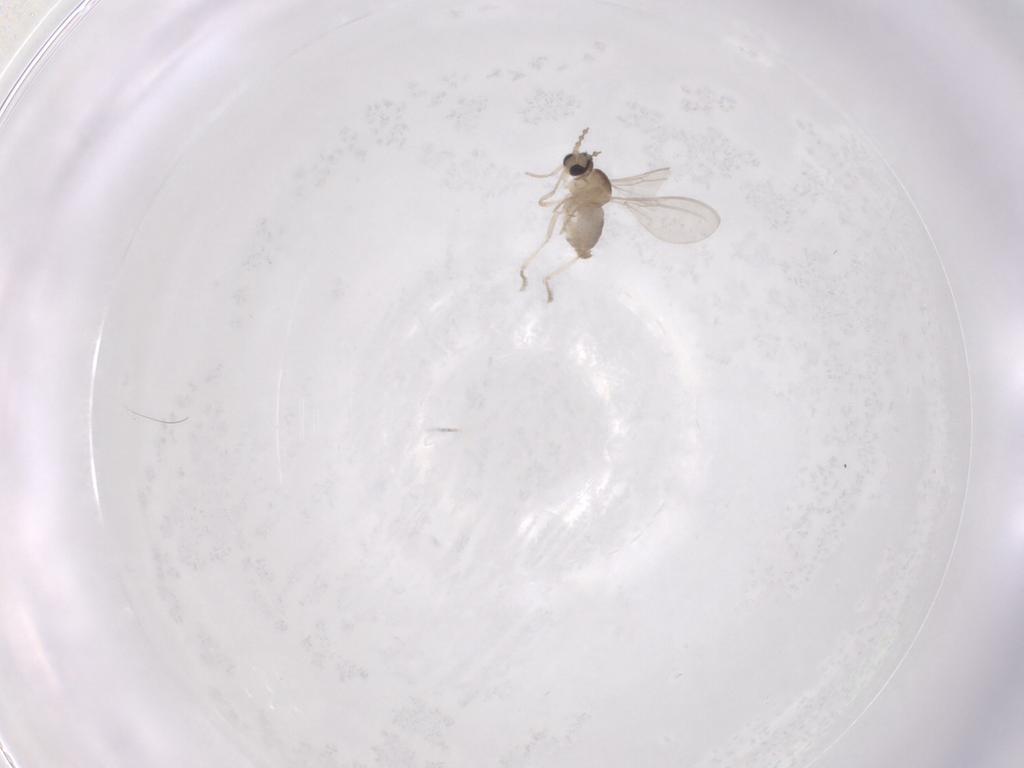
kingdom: Animalia
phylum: Arthropoda
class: Insecta
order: Diptera
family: Cecidomyiidae
